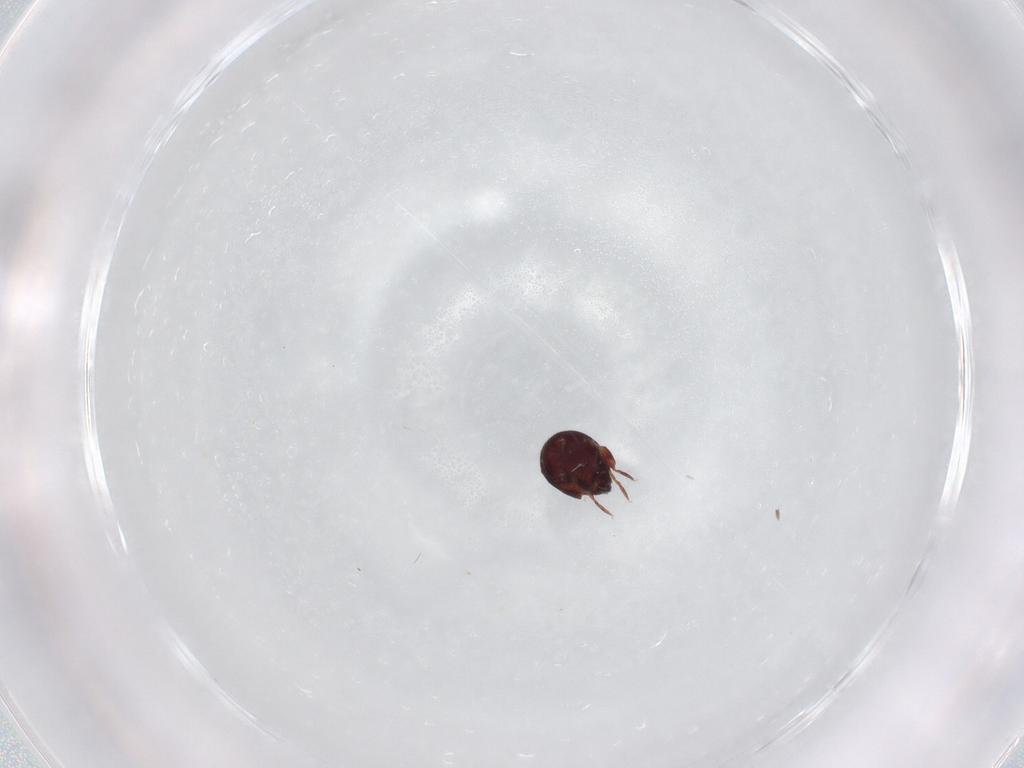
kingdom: Animalia
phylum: Arthropoda
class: Arachnida
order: Sarcoptiformes
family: Humerobatidae
